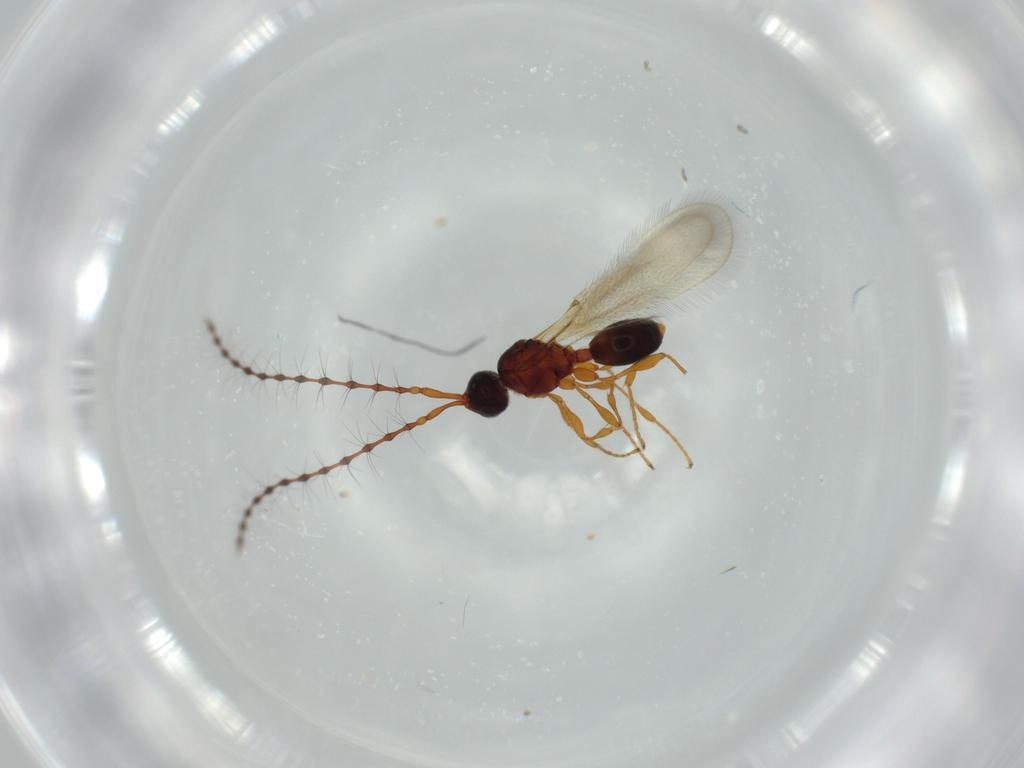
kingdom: Animalia
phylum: Arthropoda
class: Insecta
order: Hymenoptera
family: Diapriidae
